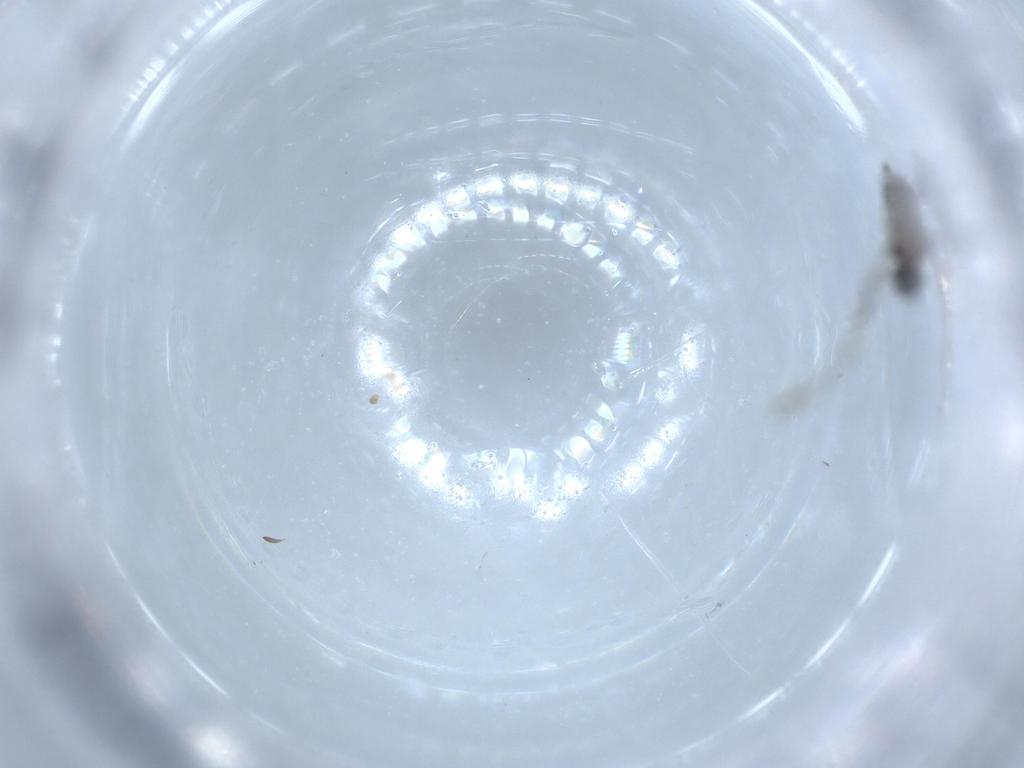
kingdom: Animalia
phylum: Arthropoda
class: Insecta
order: Diptera
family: Cecidomyiidae
